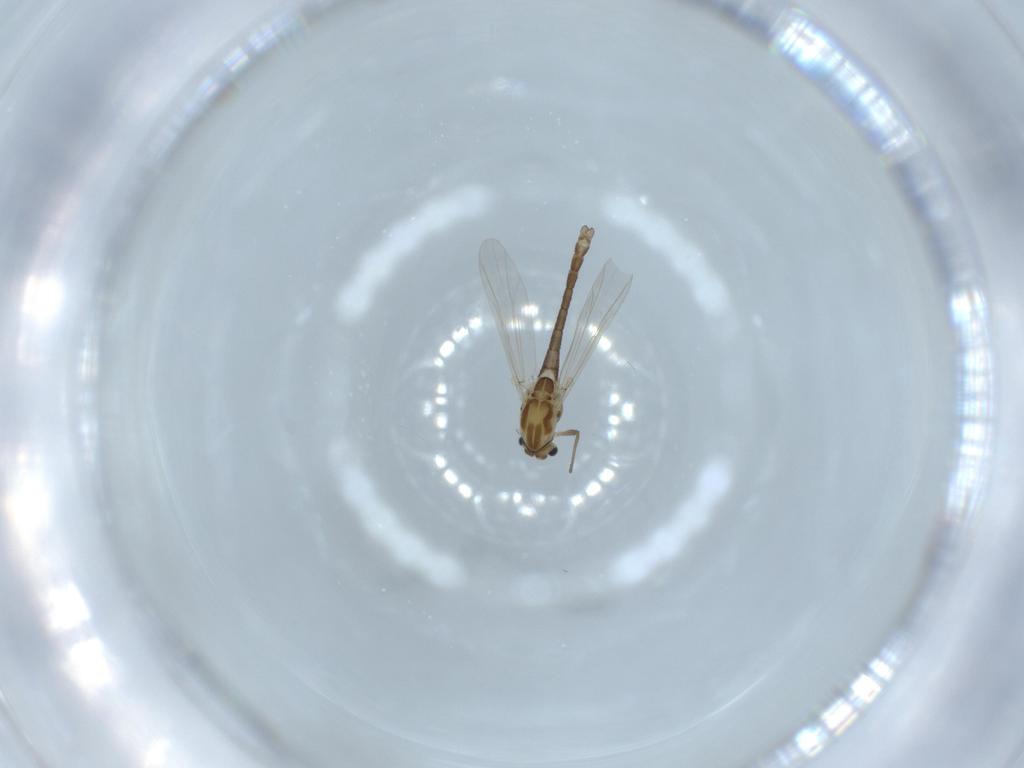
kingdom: Animalia
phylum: Arthropoda
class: Insecta
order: Diptera
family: Chironomidae
